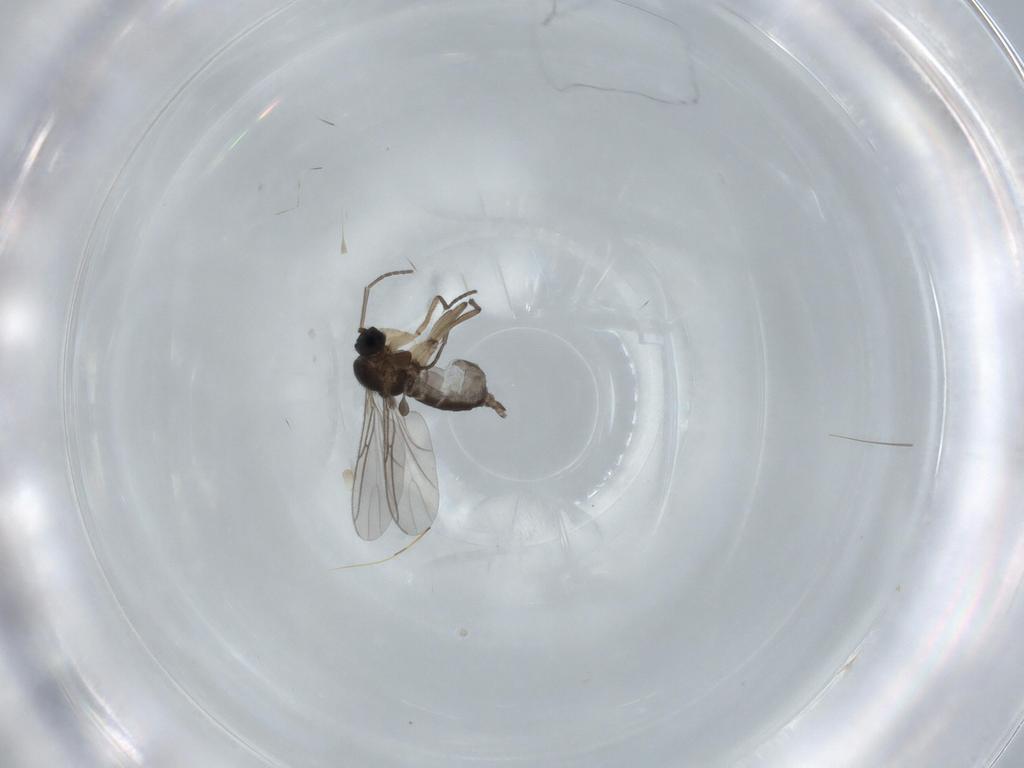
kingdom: Animalia
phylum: Arthropoda
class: Insecta
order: Diptera
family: Sciaridae
